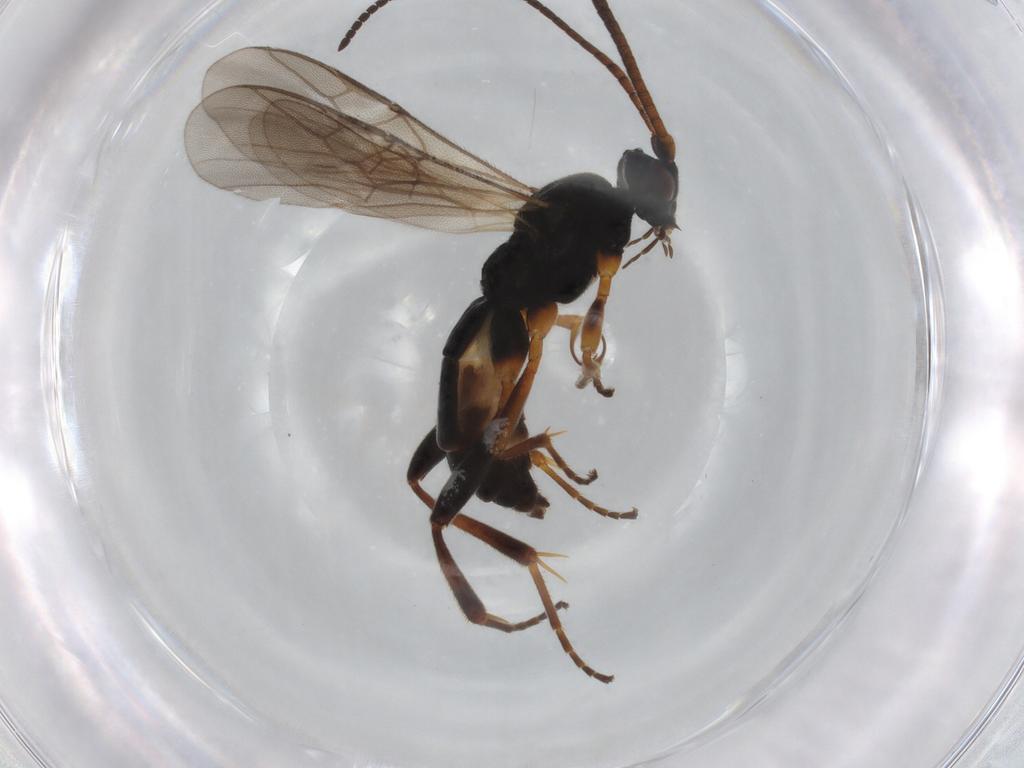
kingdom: Animalia
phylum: Arthropoda
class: Insecta
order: Hymenoptera
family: Braconidae
